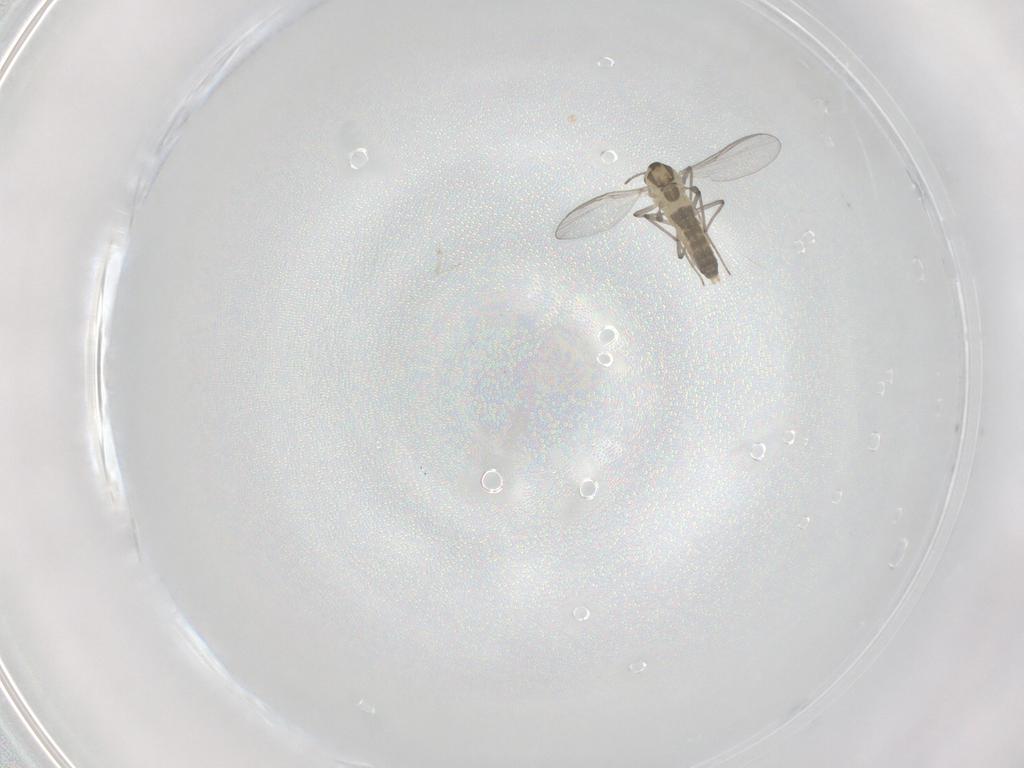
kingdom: Animalia
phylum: Arthropoda
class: Insecta
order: Diptera
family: Chironomidae
